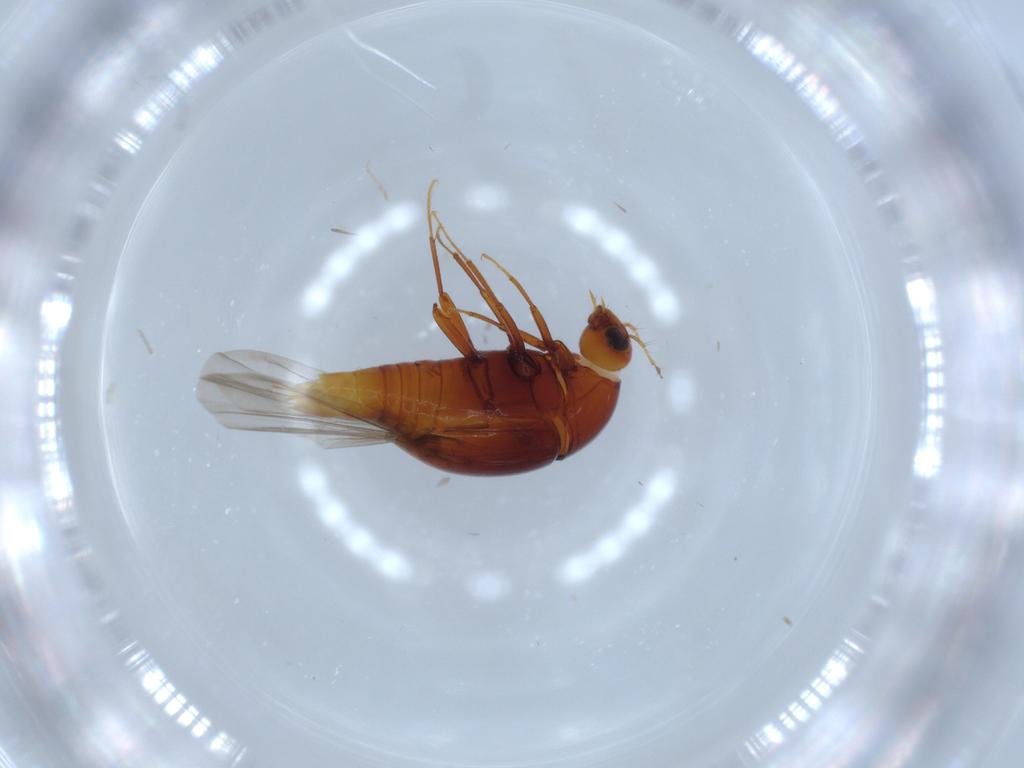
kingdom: Animalia
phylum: Arthropoda
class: Insecta
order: Coleoptera
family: Staphylinidae
